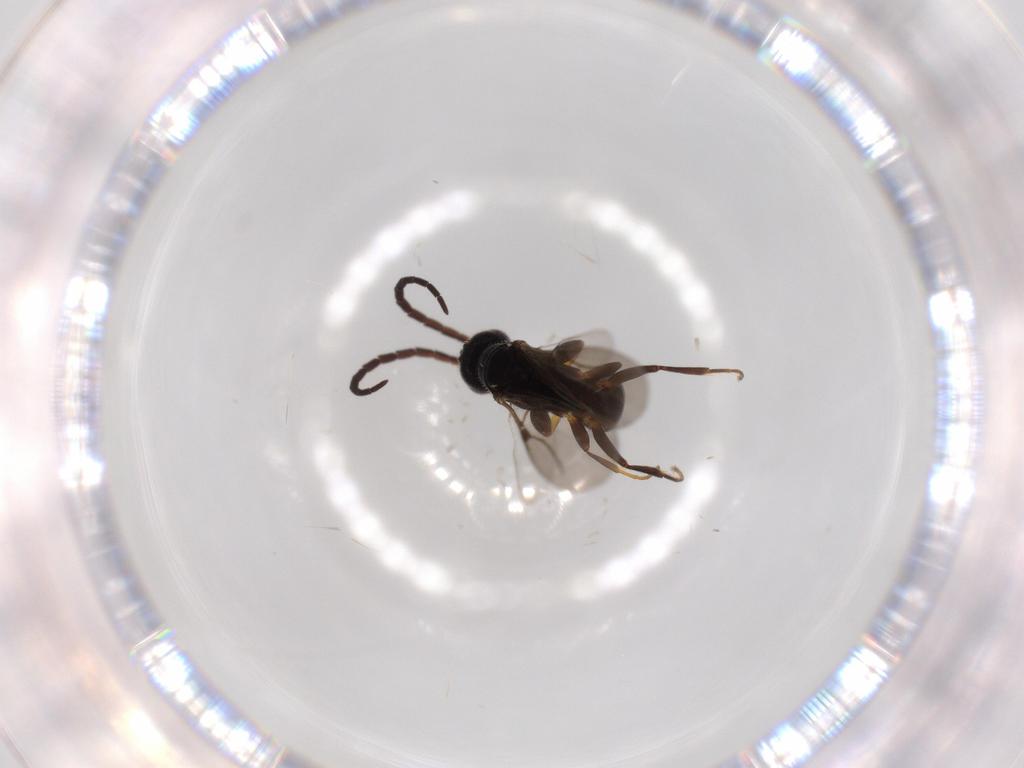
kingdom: Animalia
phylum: Arthropoda
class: Insecta
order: Hymenoptera
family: Bethylidae
